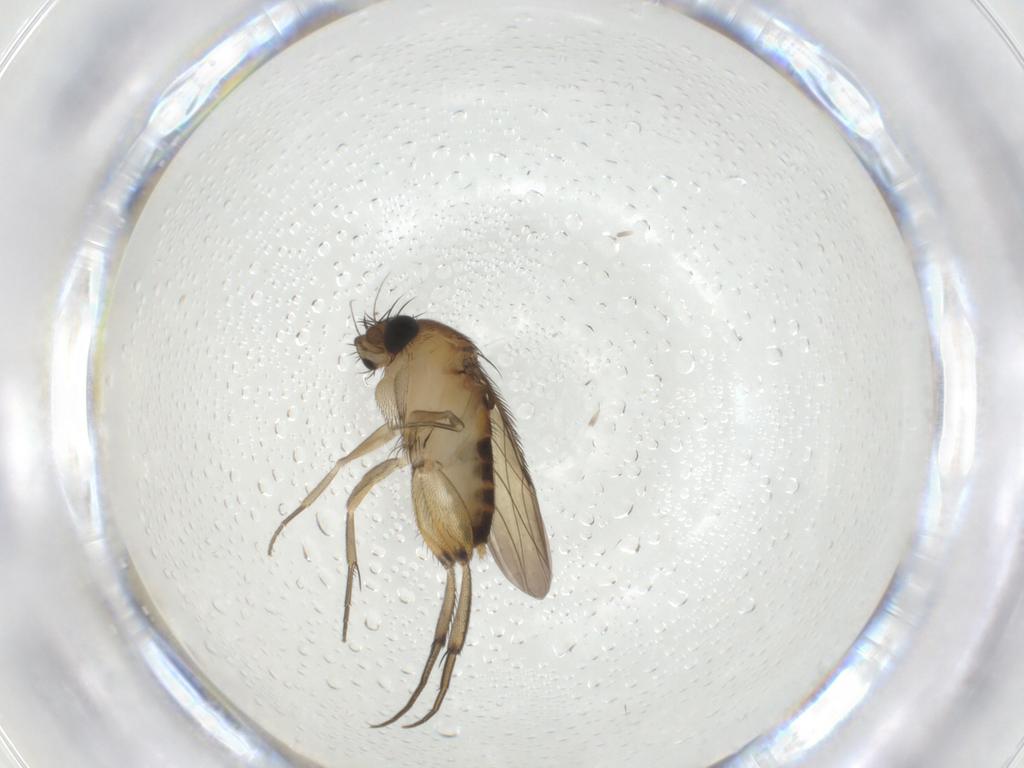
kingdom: Animalia
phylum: Arthropoda
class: Insecta
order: Diptera
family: Phoridae
